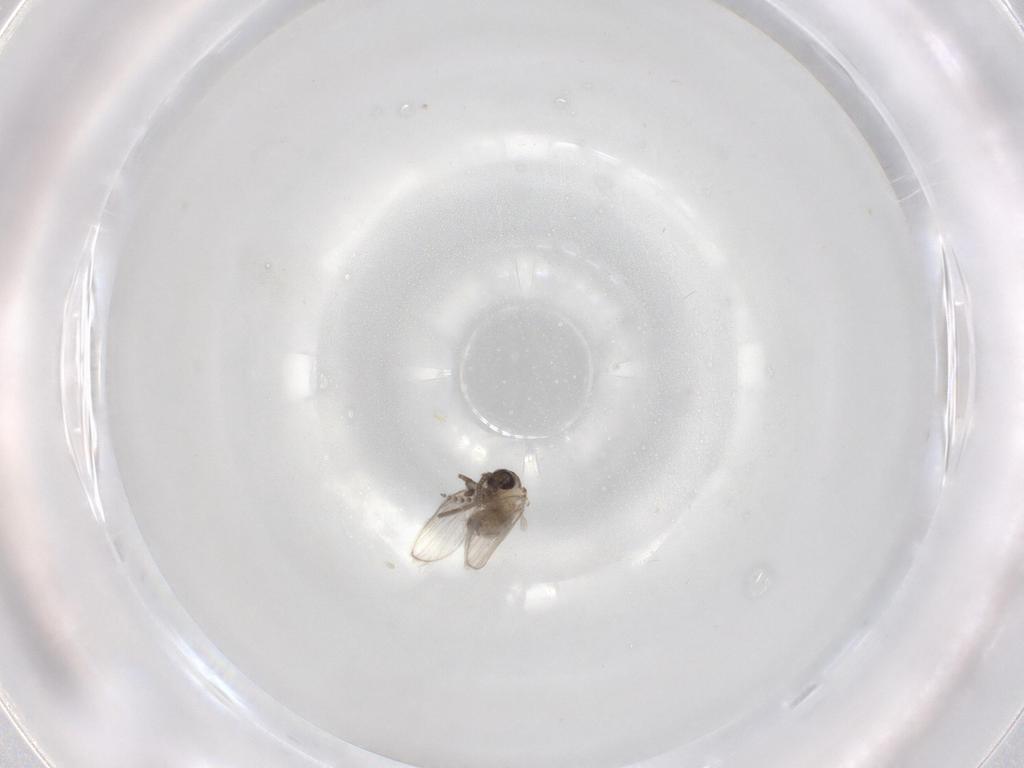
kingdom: Animalia
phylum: Arthropoda
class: Insecta
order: Diptera
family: Psychodidae
